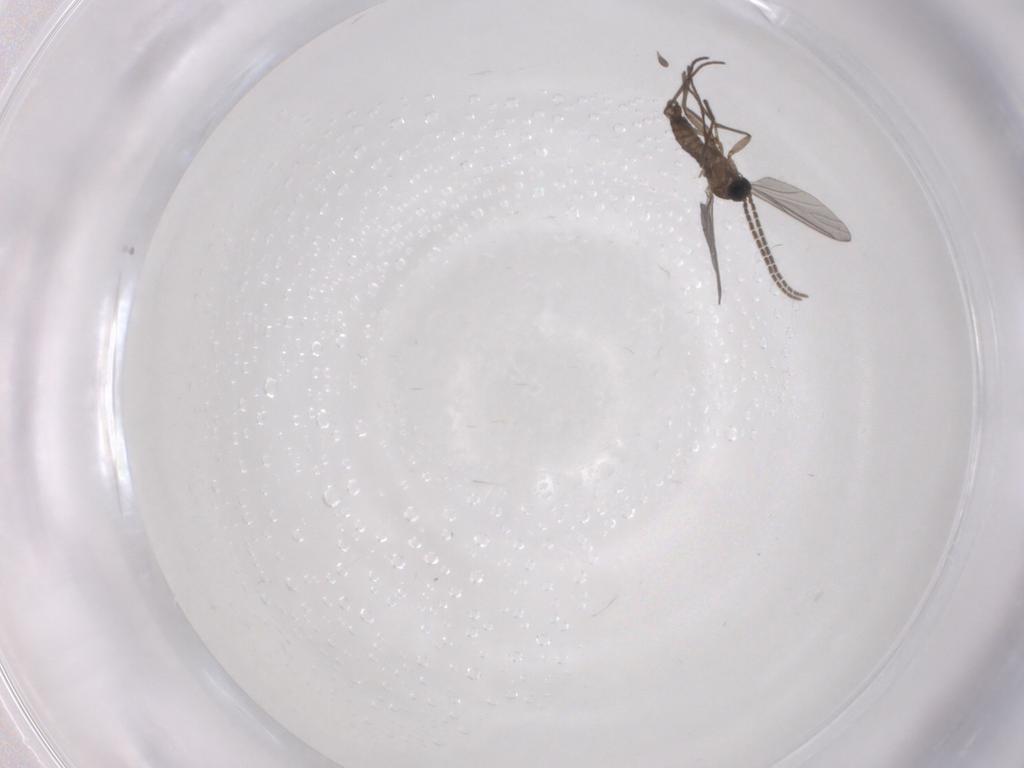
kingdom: Animalia
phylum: Arthropoda
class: Insecta
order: Diptera
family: Sciaridae
